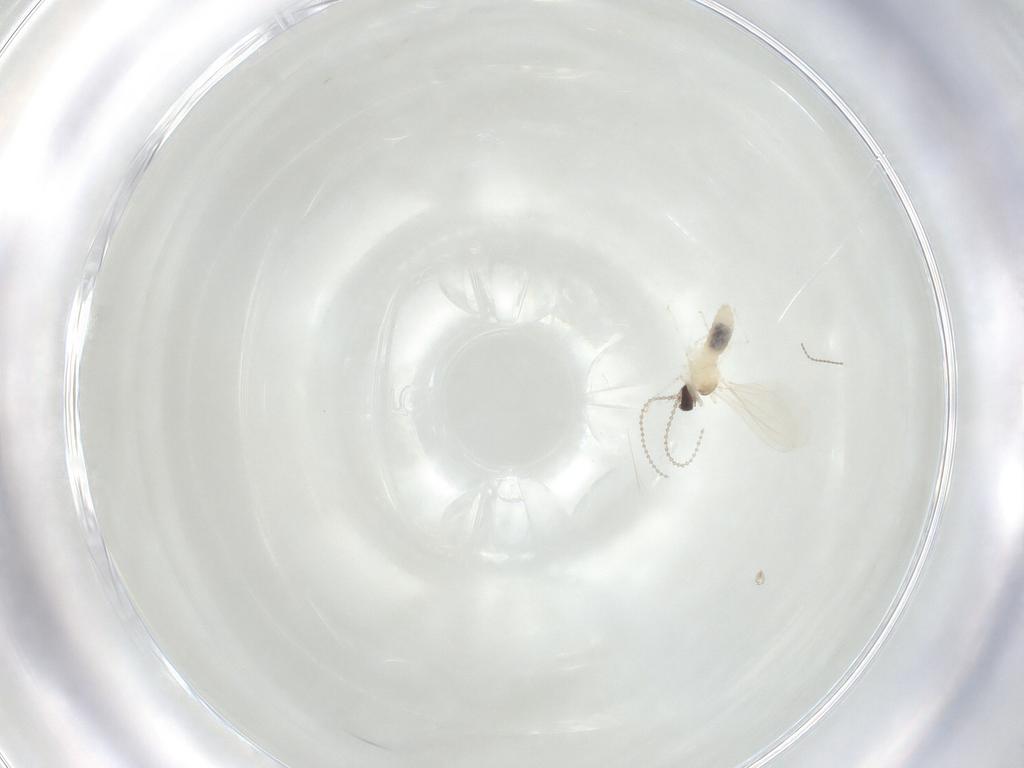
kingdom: Animalia
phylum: Arthropoda
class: Insecta
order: Diptera
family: Cecidomyiidae
